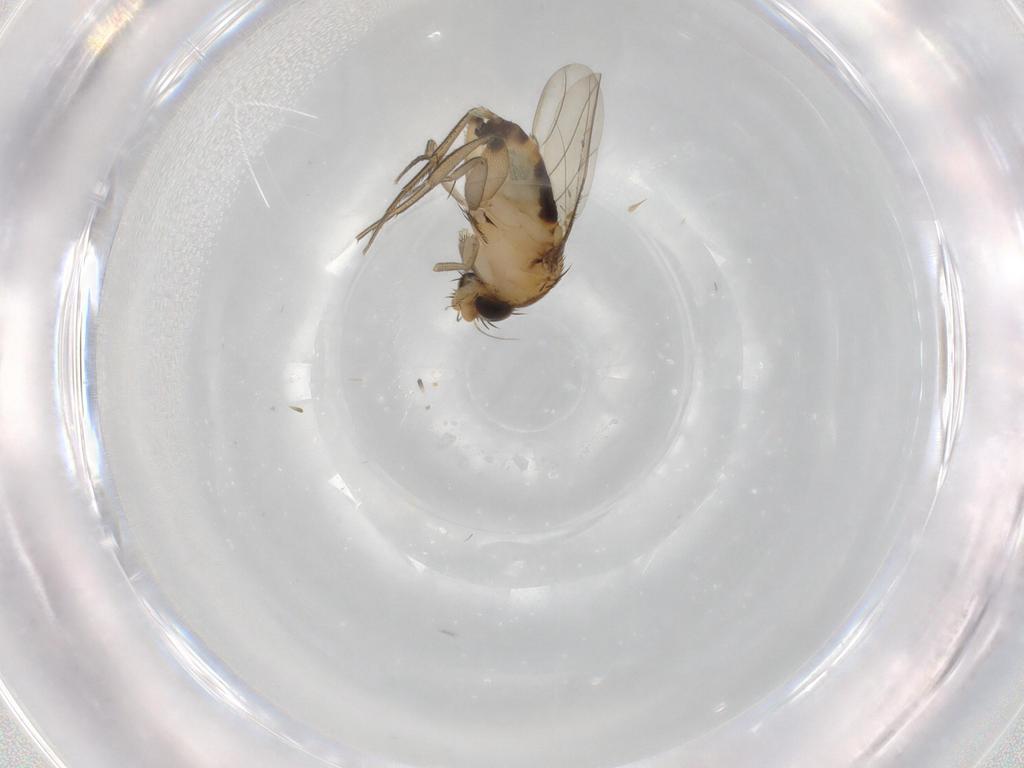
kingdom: Animalia
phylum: Arthropoda
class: Insecta
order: Diptera
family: Phoridae
